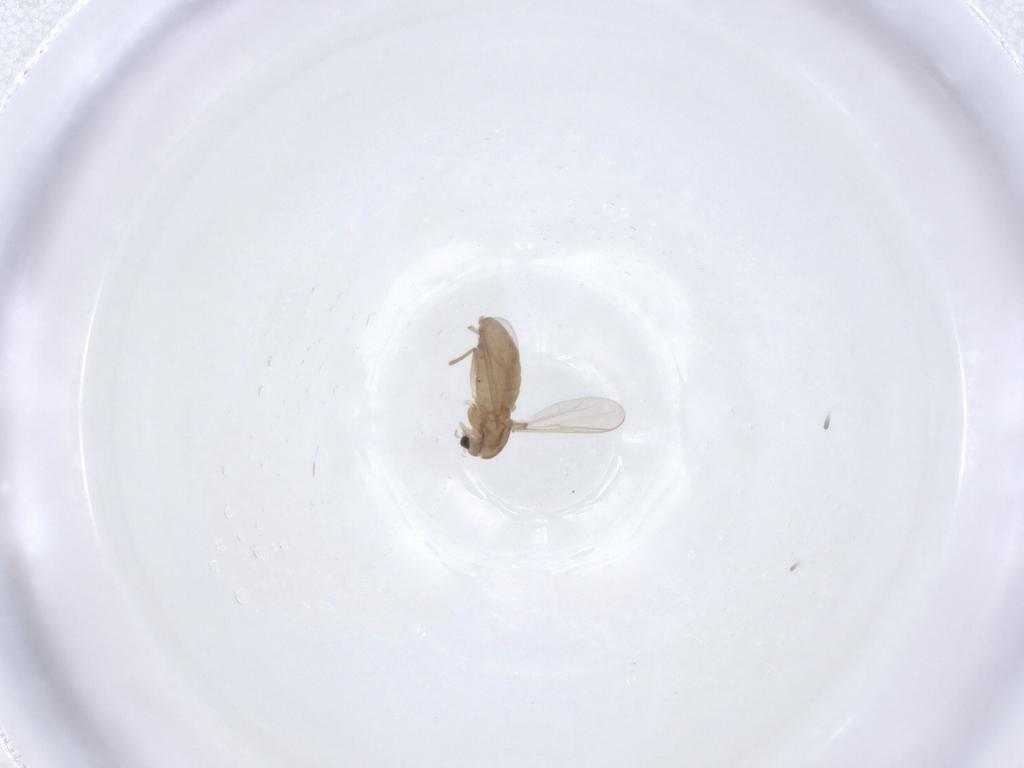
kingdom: Animalia
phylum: Arthropoda
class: Insecta
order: Diptera
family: Chironomidae
